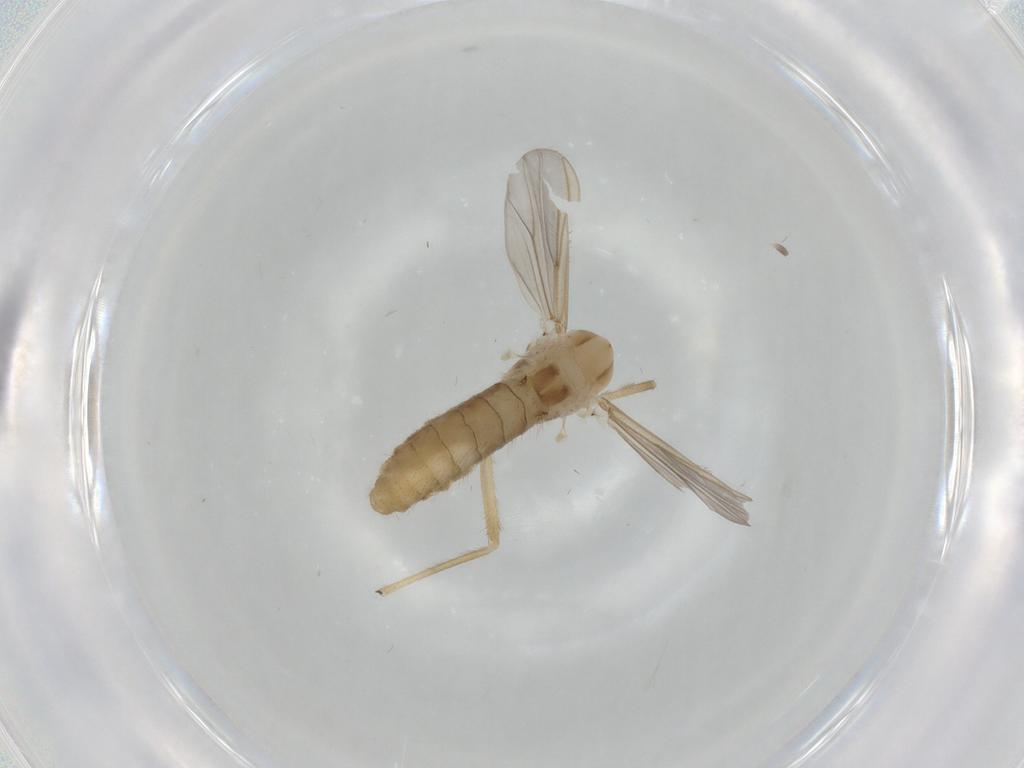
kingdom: Animalia
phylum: Arthropoda
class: Insecta
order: Diptera
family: Chironomidae
